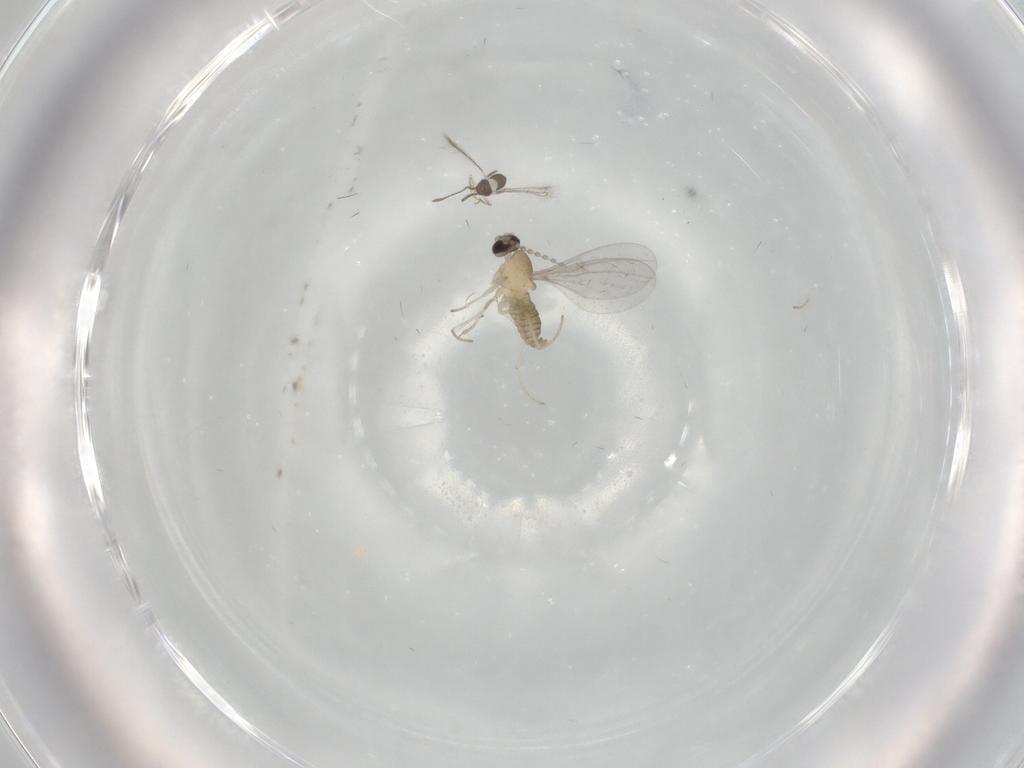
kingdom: Animalia
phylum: Arthropoda
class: Insecta
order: Diptera
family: Cecidomyiidae
